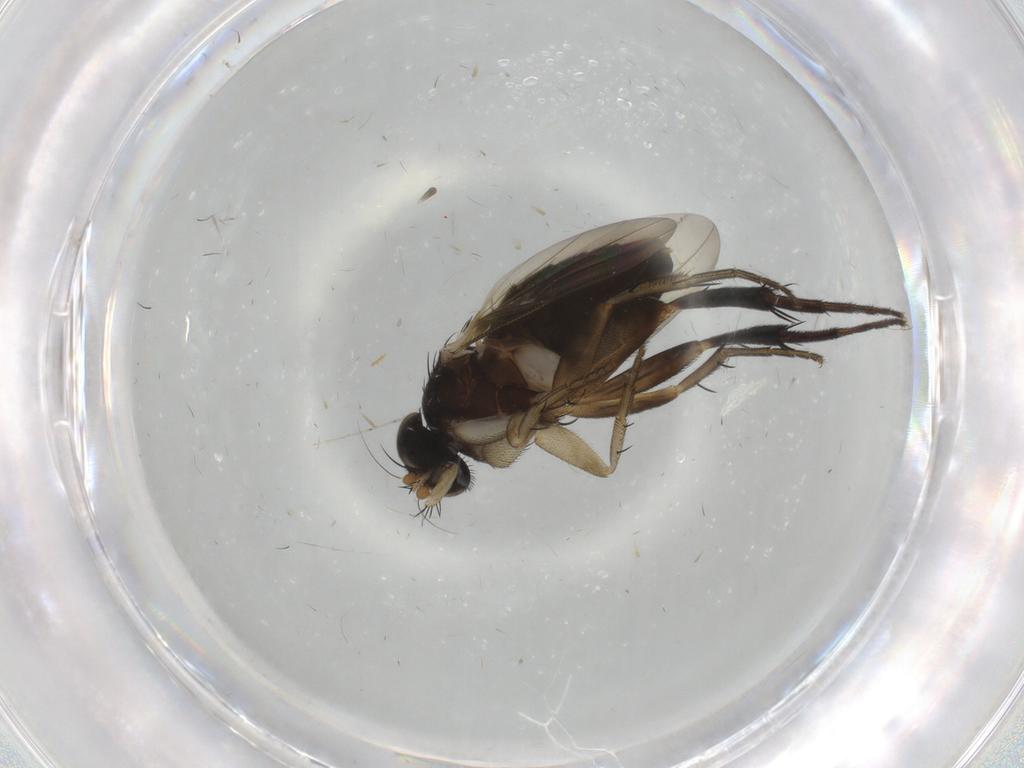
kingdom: Animalia
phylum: Arthropoda
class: Insecta
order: Diptera
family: Phoridae
